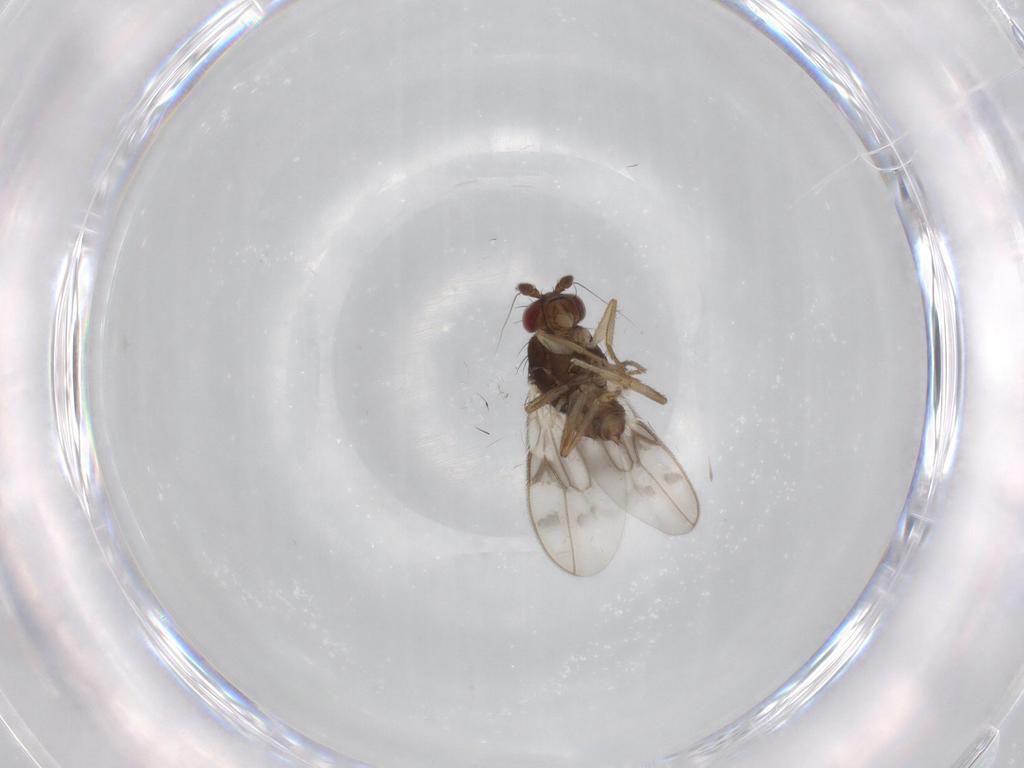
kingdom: Animalia
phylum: Arthropoda
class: Insecta
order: Diptera
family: Sphaeroceridae
